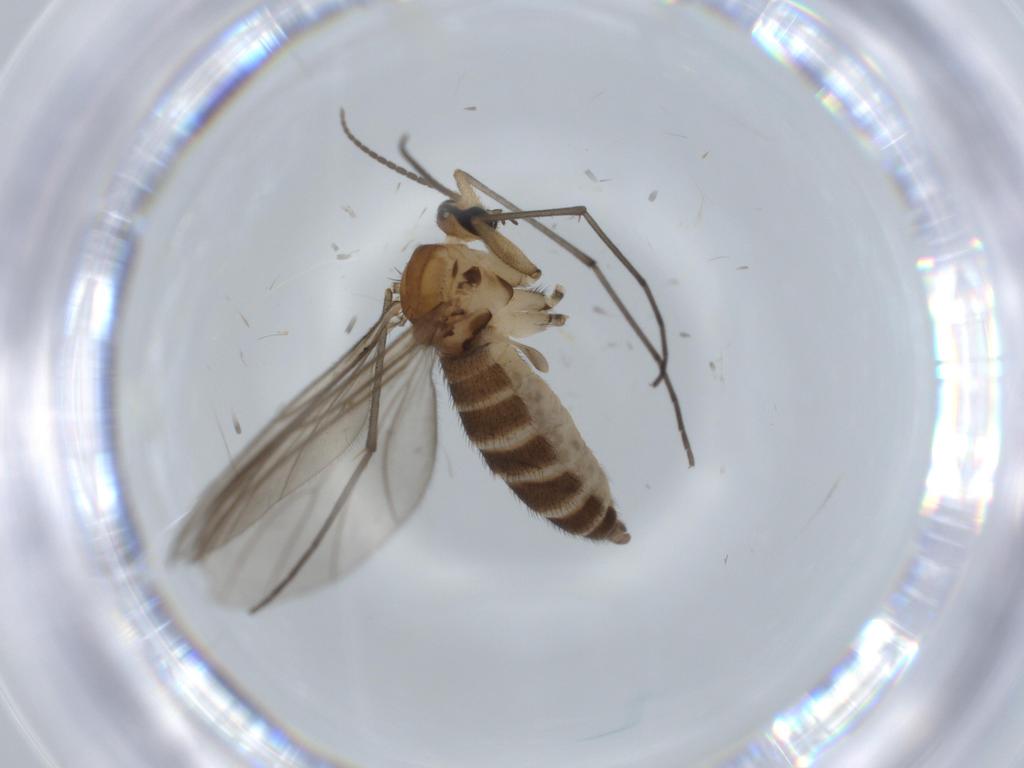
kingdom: Animalia
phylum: Arthropoda
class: Insecta
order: Diptera
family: Sciaridae
